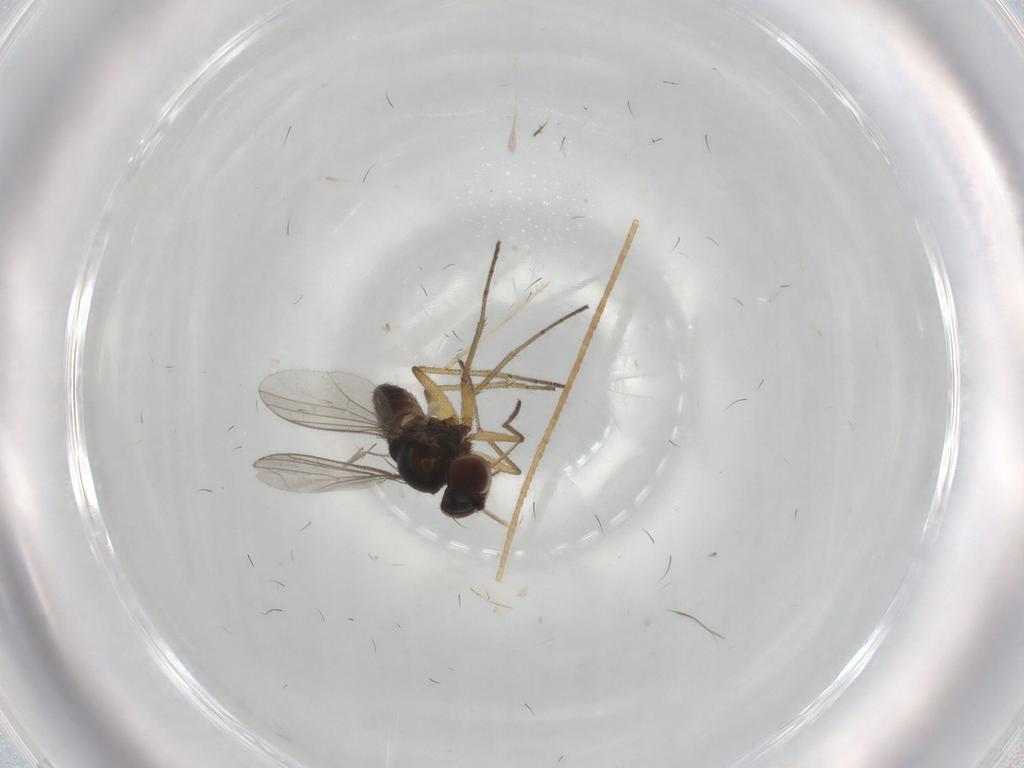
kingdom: Animalia
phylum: Arthropoda
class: Insecta
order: Diptera
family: Dolichopodidae
